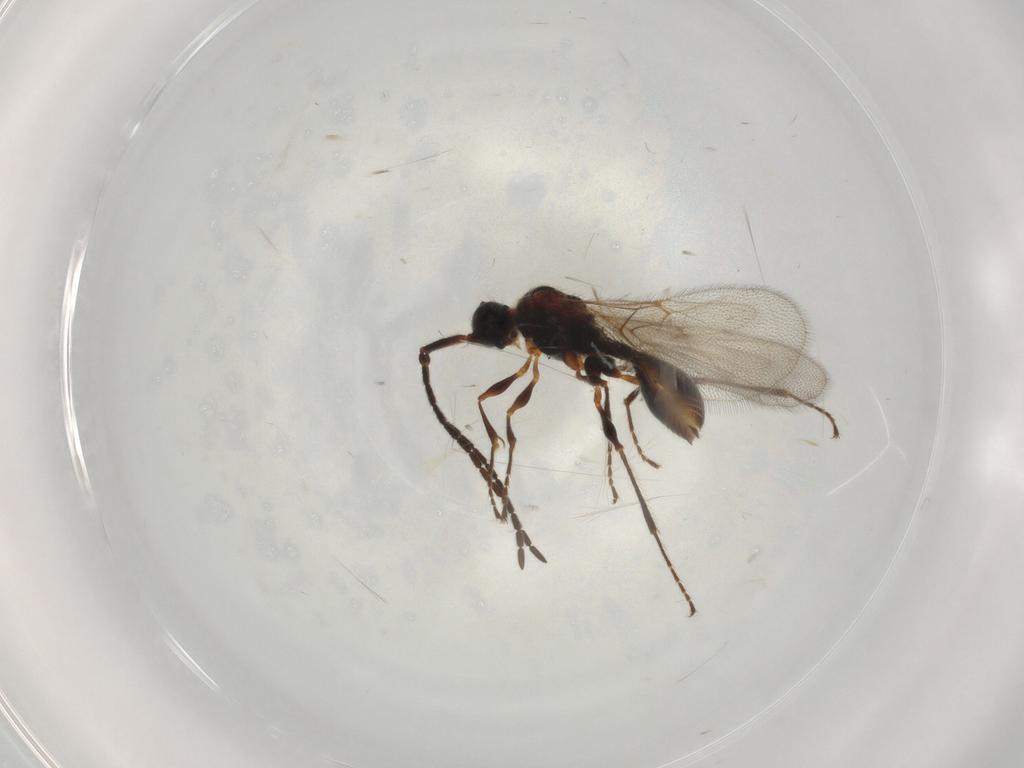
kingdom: Animalia
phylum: Arthropoda
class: Insecta
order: Hymenoptera
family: Diapriidae
